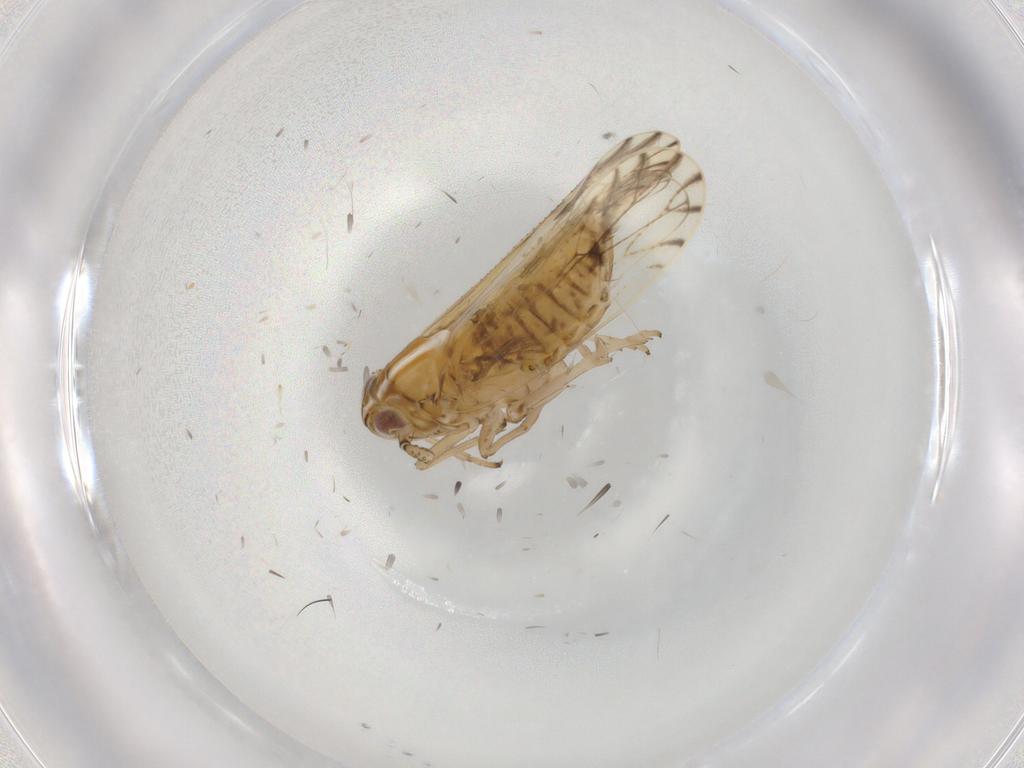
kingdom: Animalia
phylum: Arthropoda
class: Insecta
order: Hemiptera
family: Delphacidae
